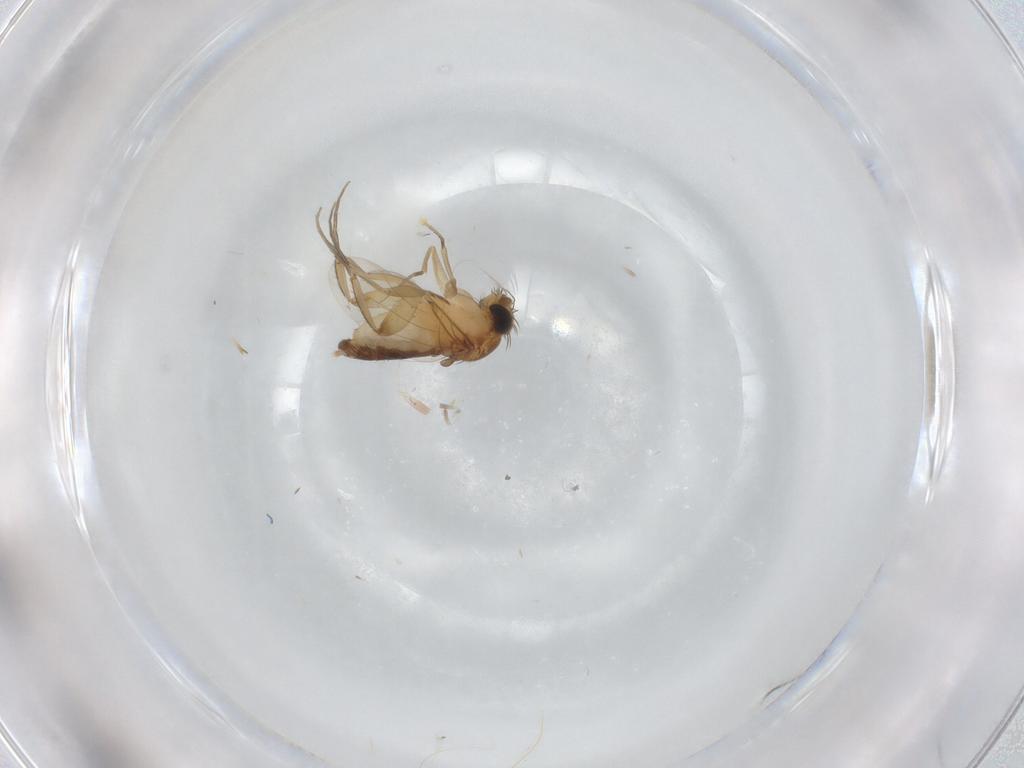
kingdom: Animalia
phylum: Arthropoda
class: Insecta
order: Diptera
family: Phoridae
